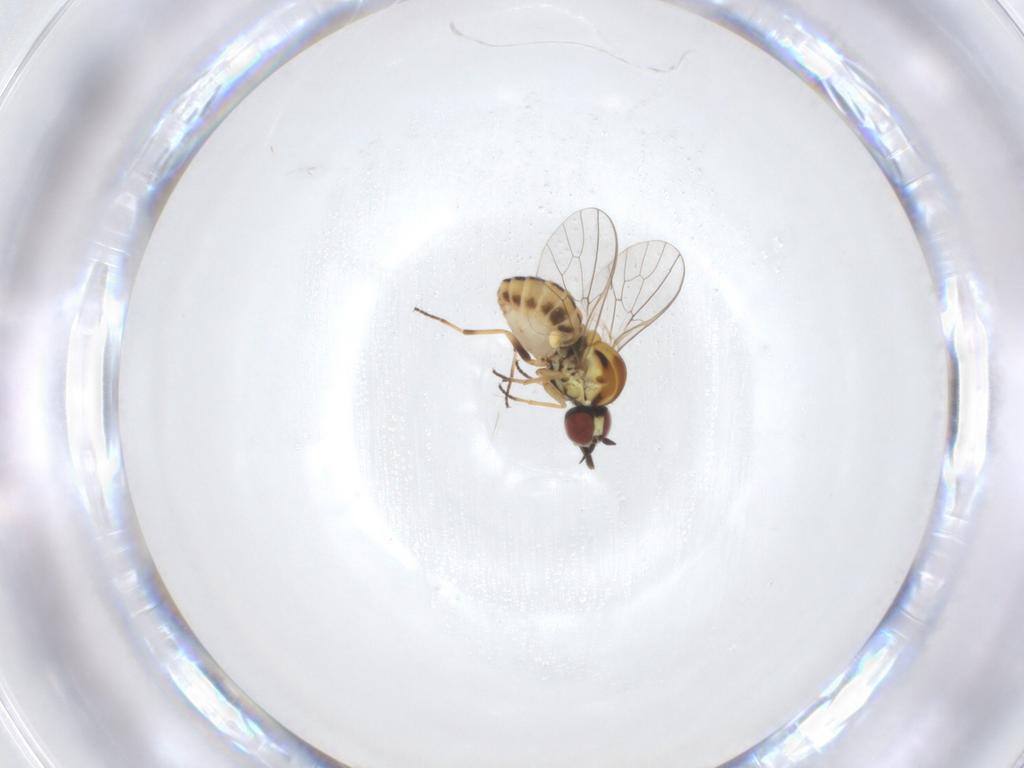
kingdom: Animalia
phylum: Arthropoda
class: Insecta
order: Diptera
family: Bombyliidae
